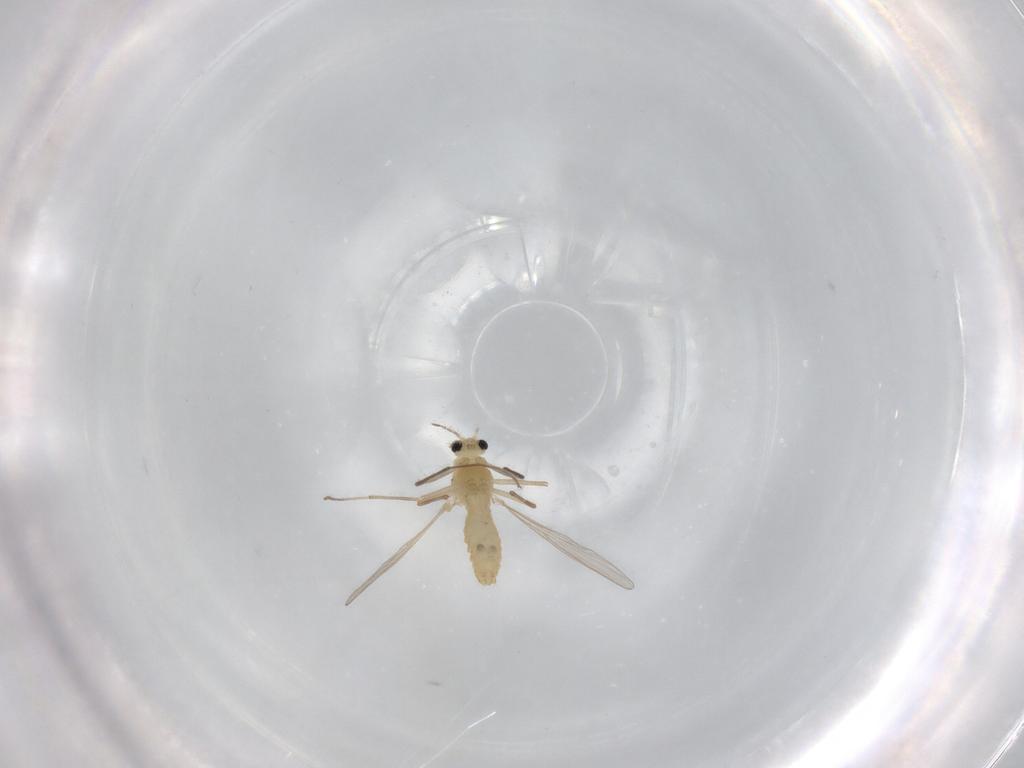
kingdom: Animalia
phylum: Arthropoda
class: Insecta
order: Diptera
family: Chironomidae
